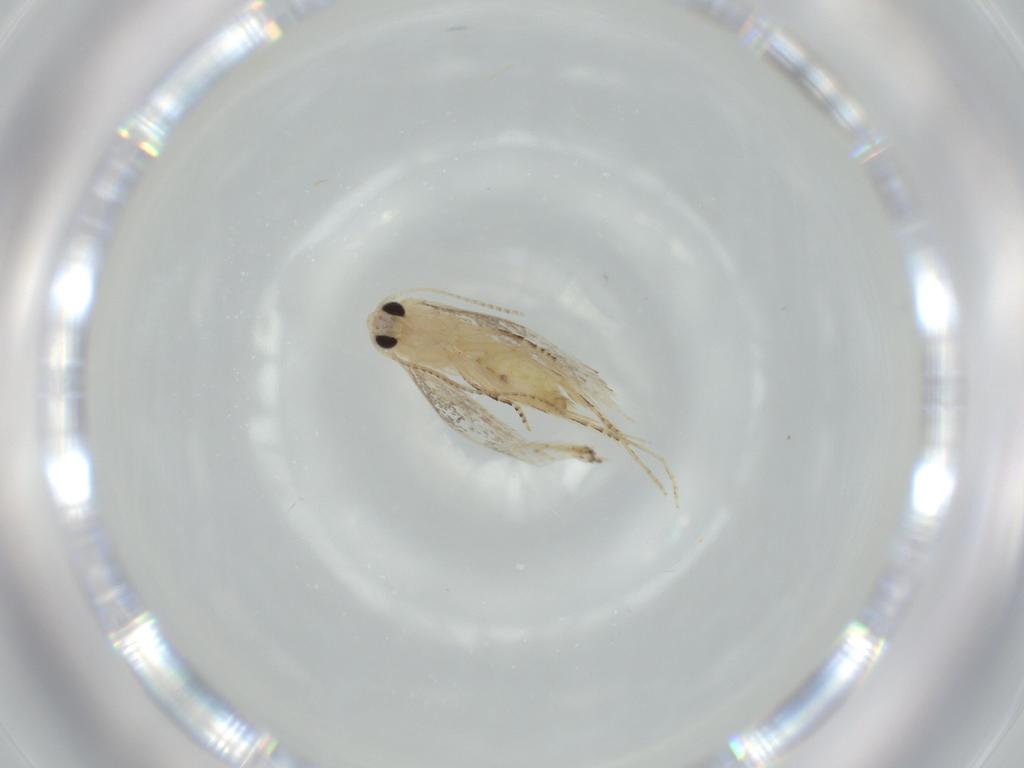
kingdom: Animalia
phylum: Arthropoda
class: Insecta
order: Lepidoptera
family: Bucculatricidae
